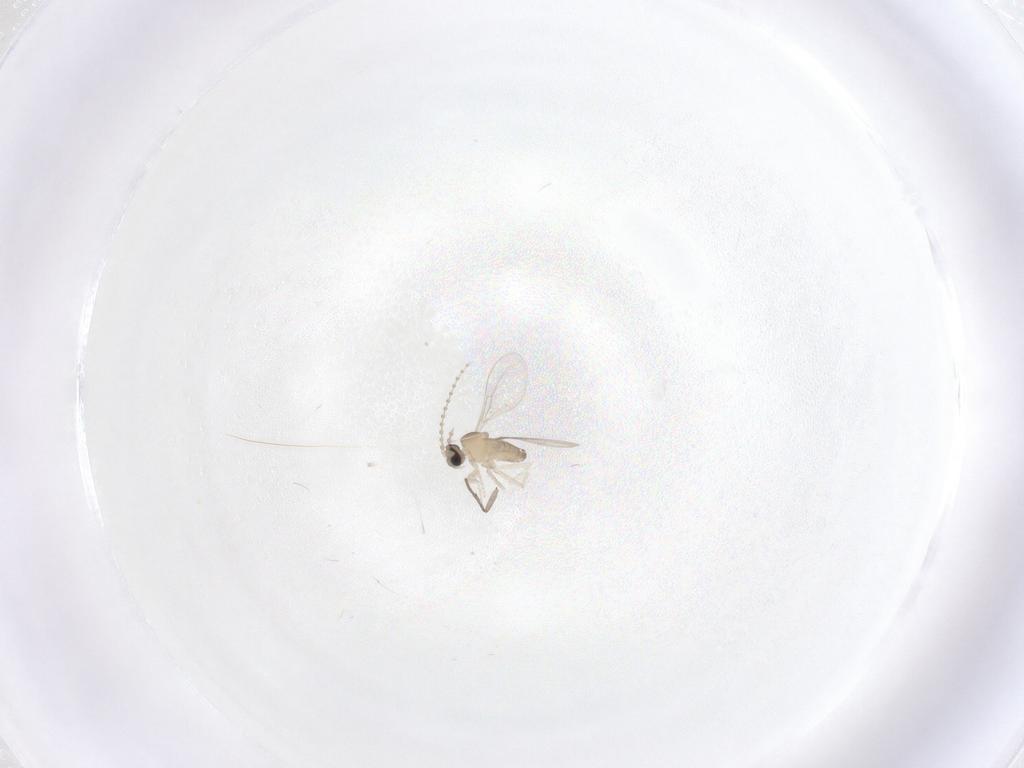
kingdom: Animalia
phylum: Arthropoda
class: Insecta
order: Diptera
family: Cecidomyiidae
